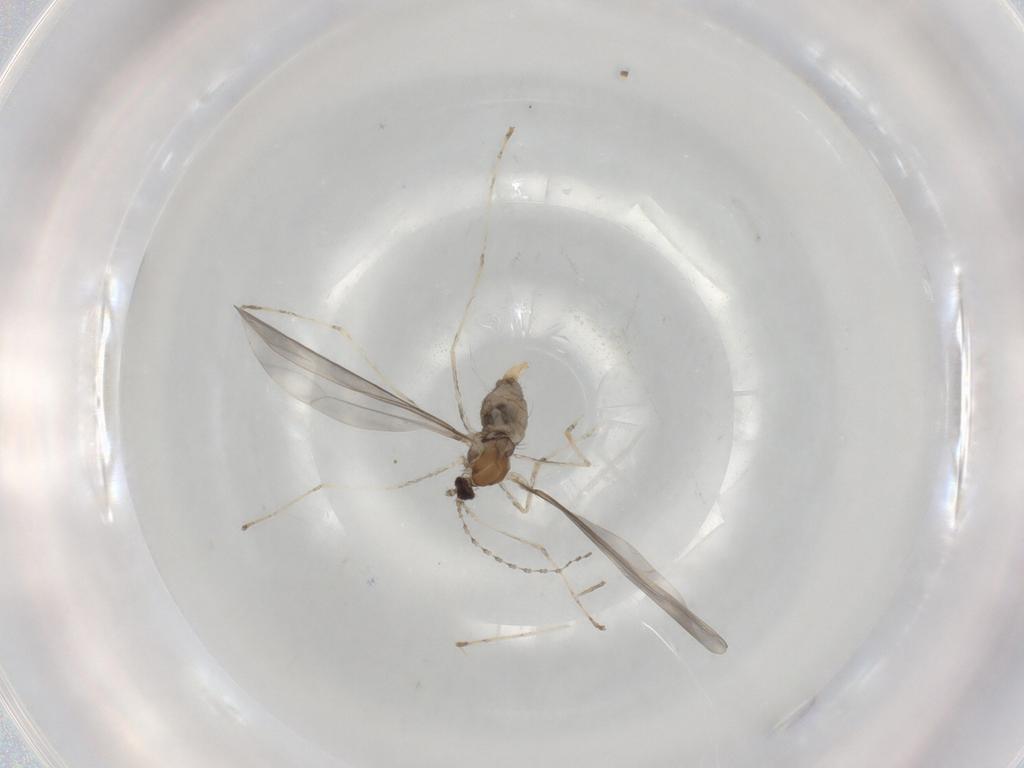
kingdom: Animalia
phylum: Arthropoda
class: Insecta
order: Diptera
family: Cecidomyiidae
